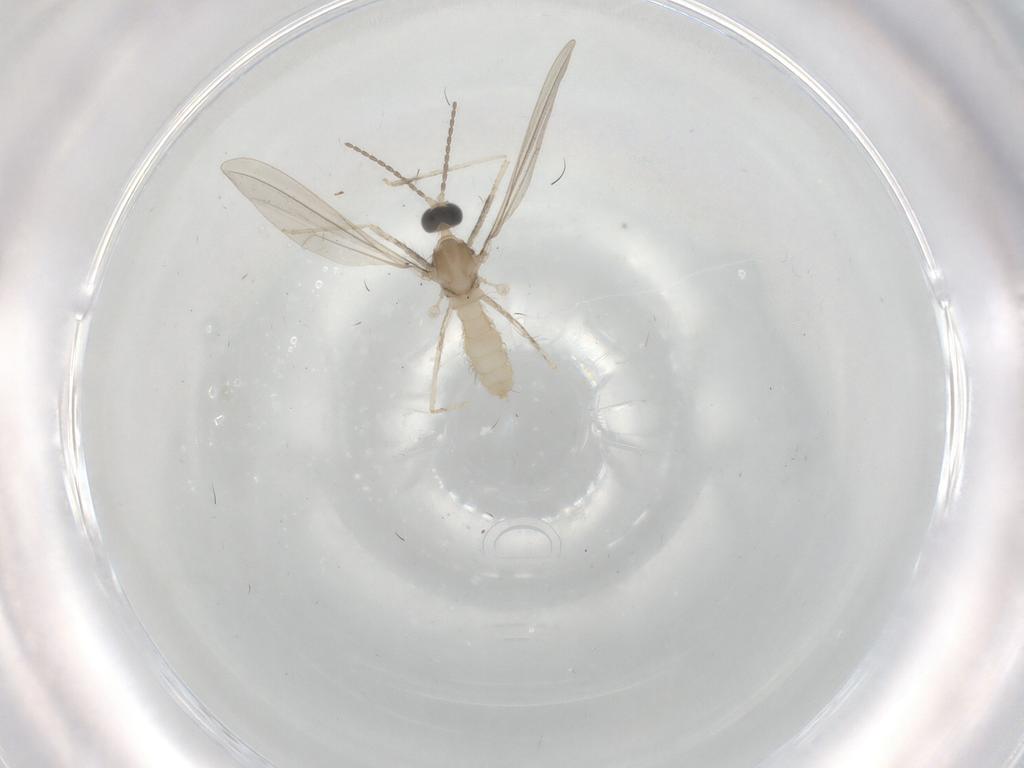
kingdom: Animalia
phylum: Arthropoda
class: Insecta
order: Diptera
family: Cecidomyiidae
